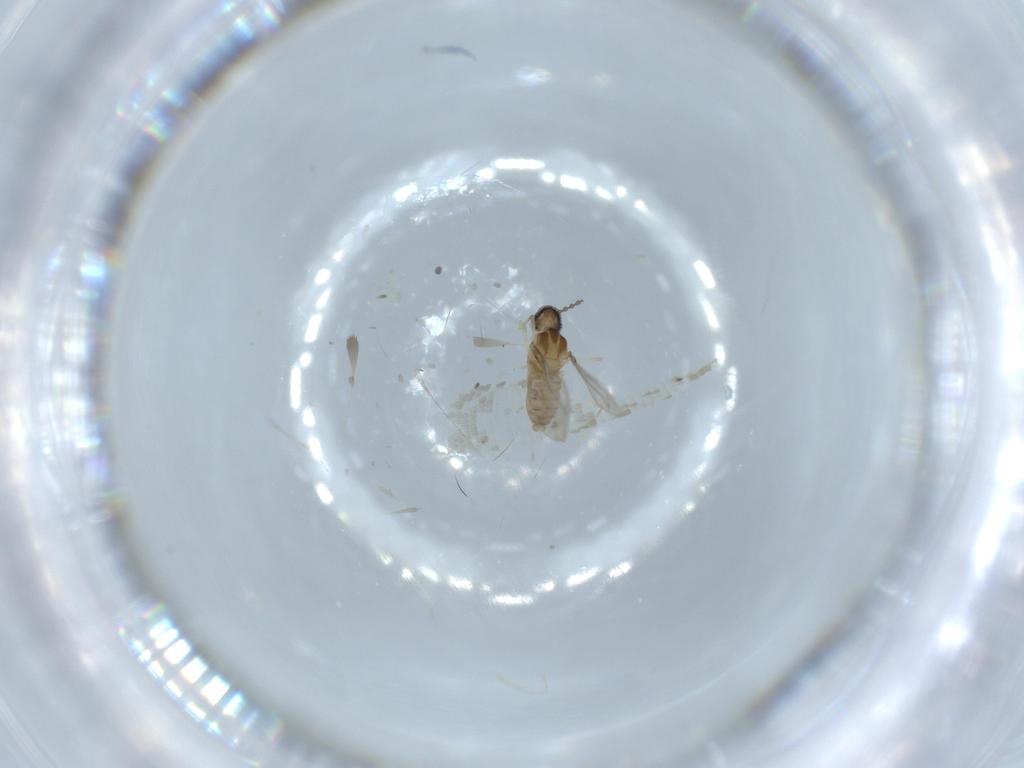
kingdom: Animalia
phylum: Arthropoda
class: Insecta
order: Diptera
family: Cecidomyiidae
